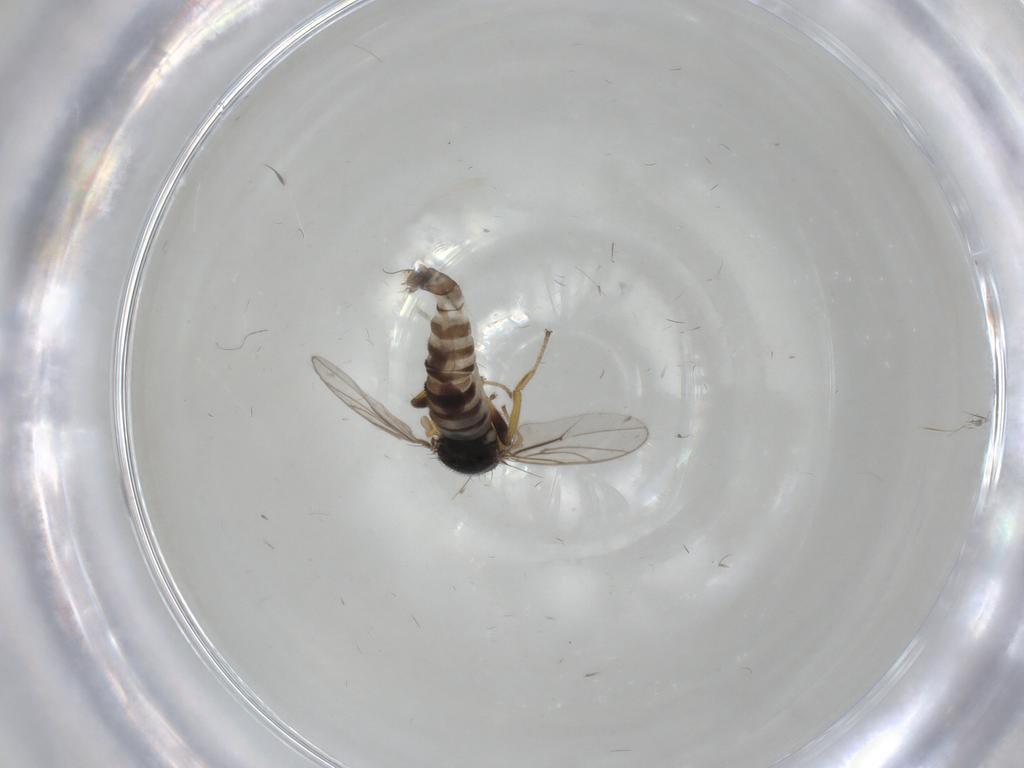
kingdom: Animalia
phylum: Arthropoda
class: Insecta
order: Diptera
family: Hybotidae
